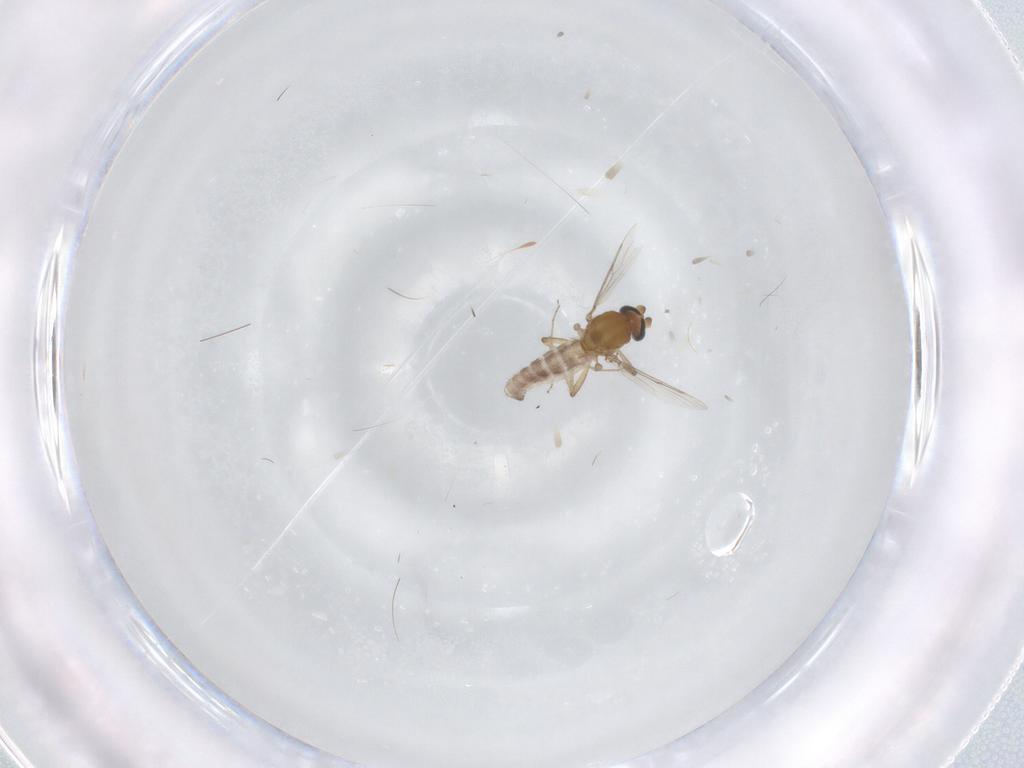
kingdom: Animalia
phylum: Arthropoda
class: Insecta
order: Diptera
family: Ceratopogonidae
